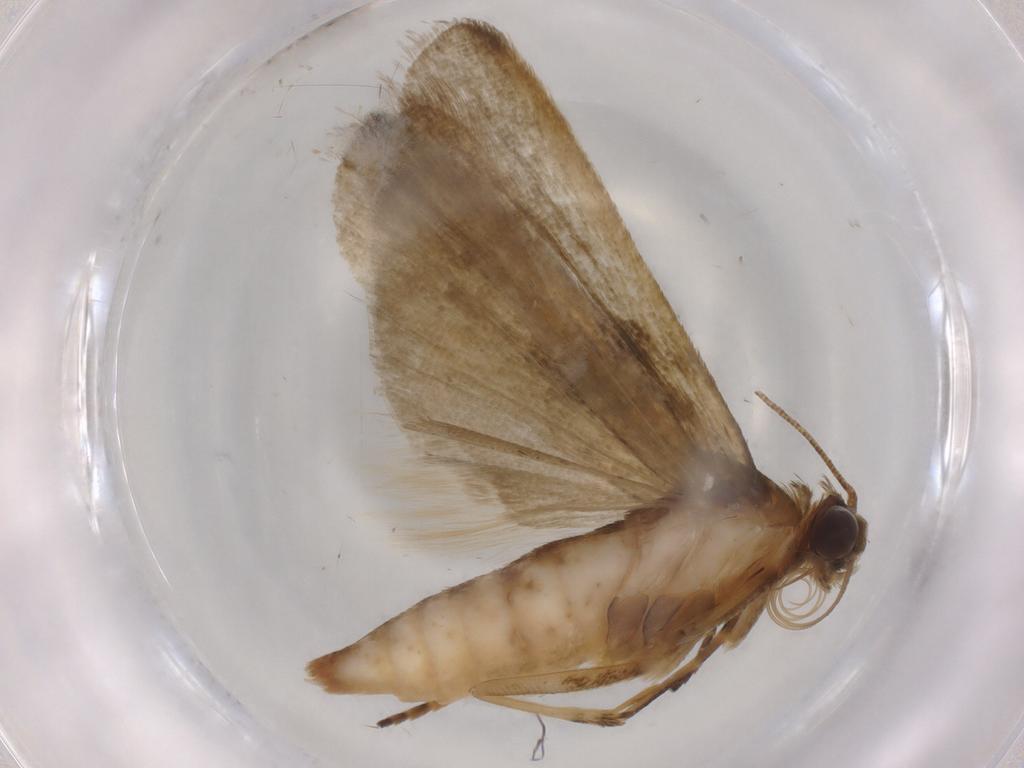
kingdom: Animalia
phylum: Arthropoda
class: Insecta
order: Lepidoptera
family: Noctuidae
